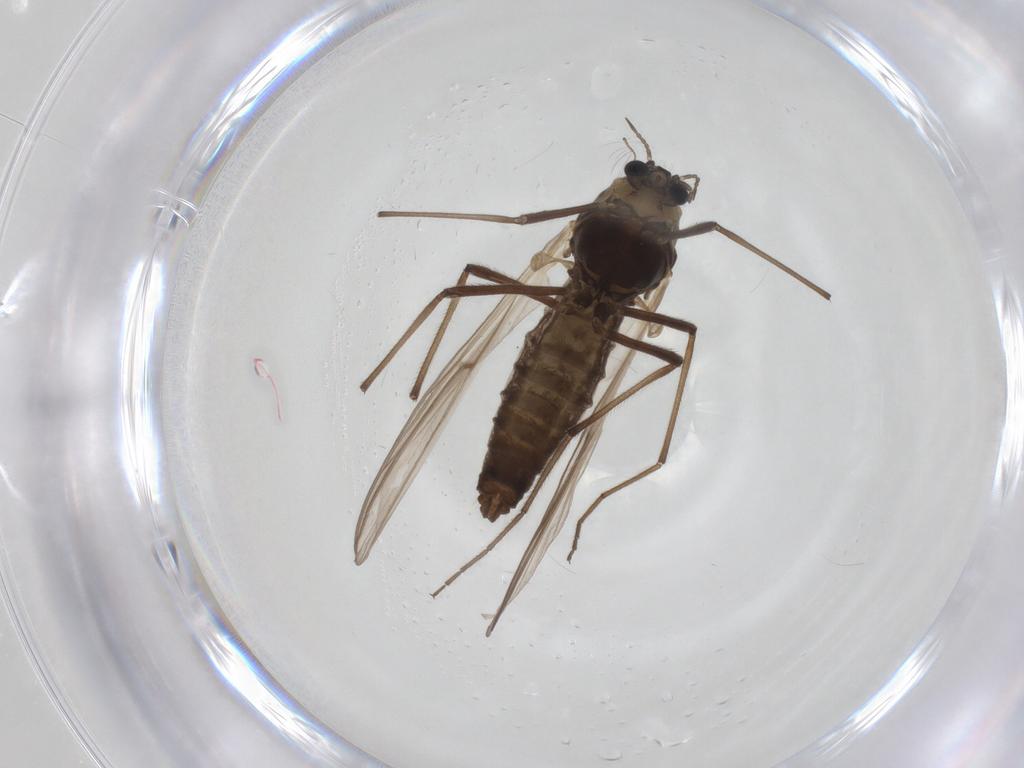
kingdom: Animalia
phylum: Arthropoda
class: Insecta
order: Diptera
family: Chironomidae
